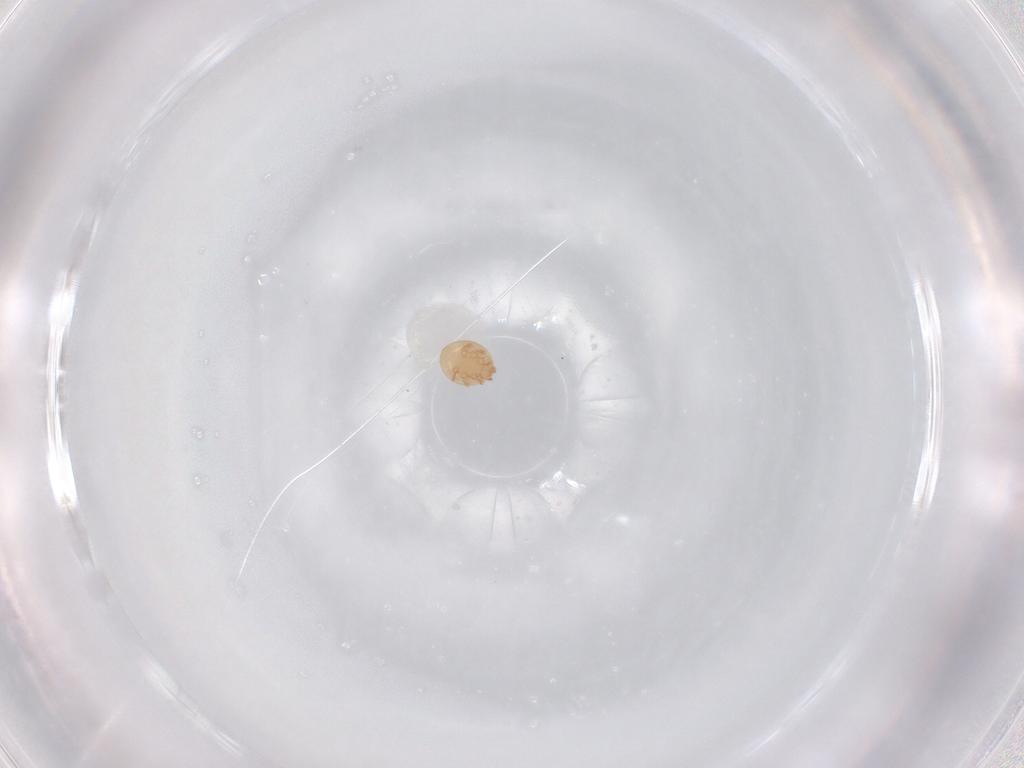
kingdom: Animalia
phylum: Arthropoda
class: Arachnida
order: Mesostigmata
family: Trematuridae
